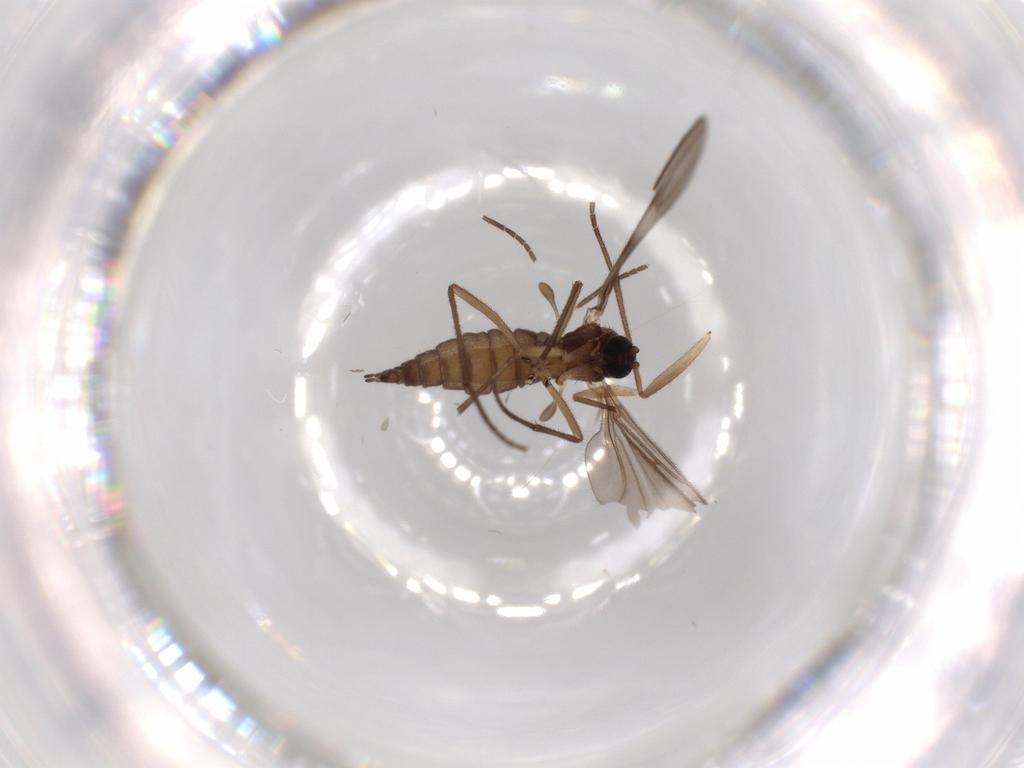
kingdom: Animalia
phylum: Arthropoda
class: Insecta
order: Diptera
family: Sciaridae
